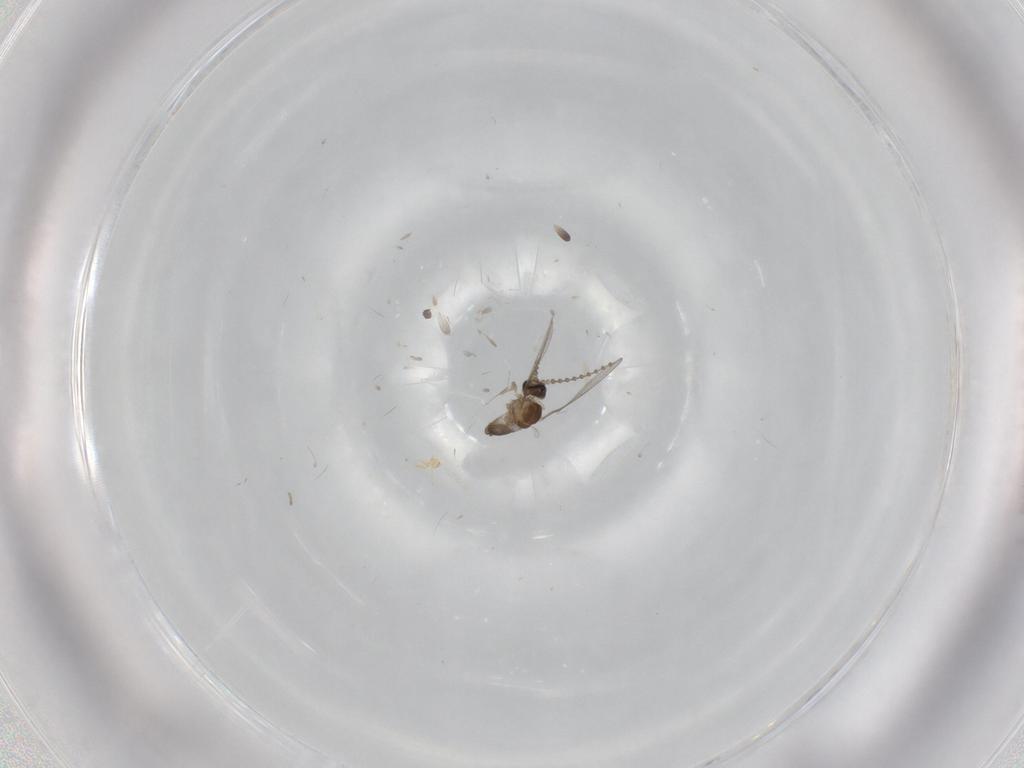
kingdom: Animalia
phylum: Arthropoda
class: Insecta
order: Diptera
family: Cecidomyiidae
